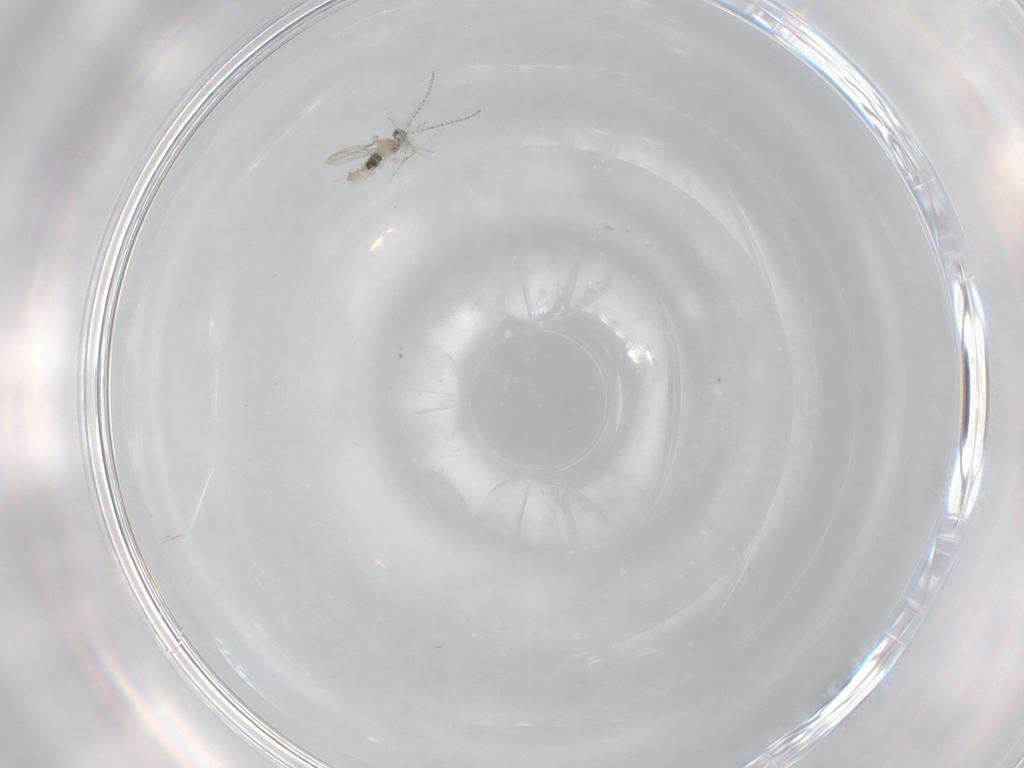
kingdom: Animalia
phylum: Arthropoda
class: Insecta
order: Diptera
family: Cecidomyiidae
